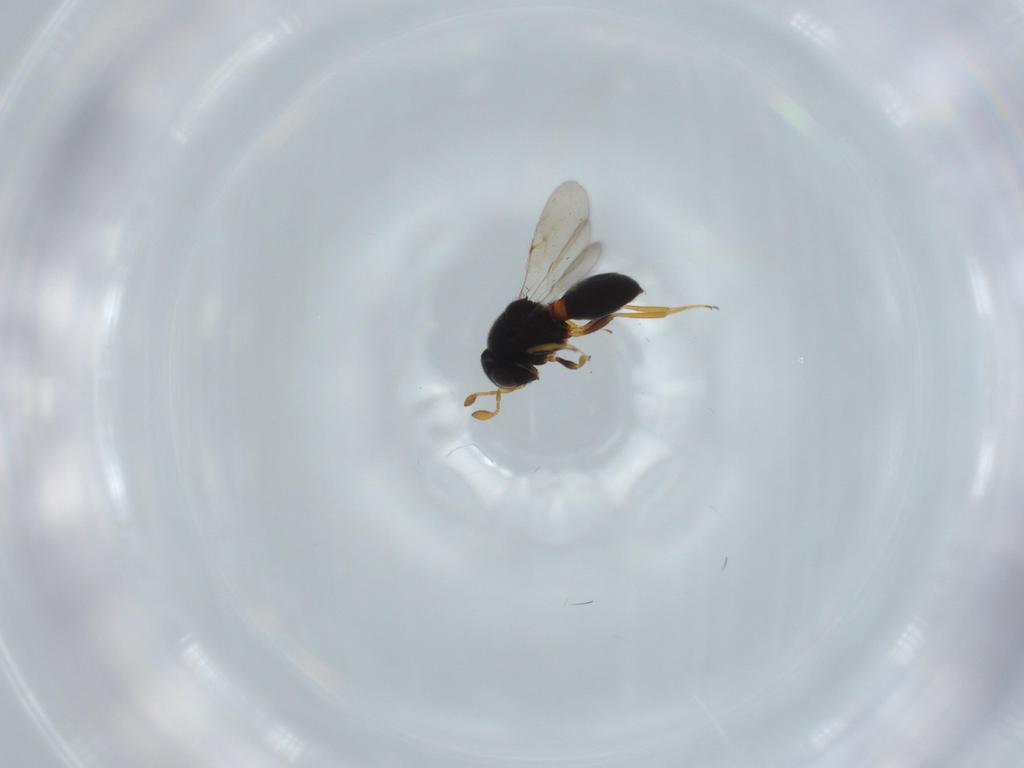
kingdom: Animalia
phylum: Arthropoda
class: Insecta
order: Hymenoptera
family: Scelionidae
